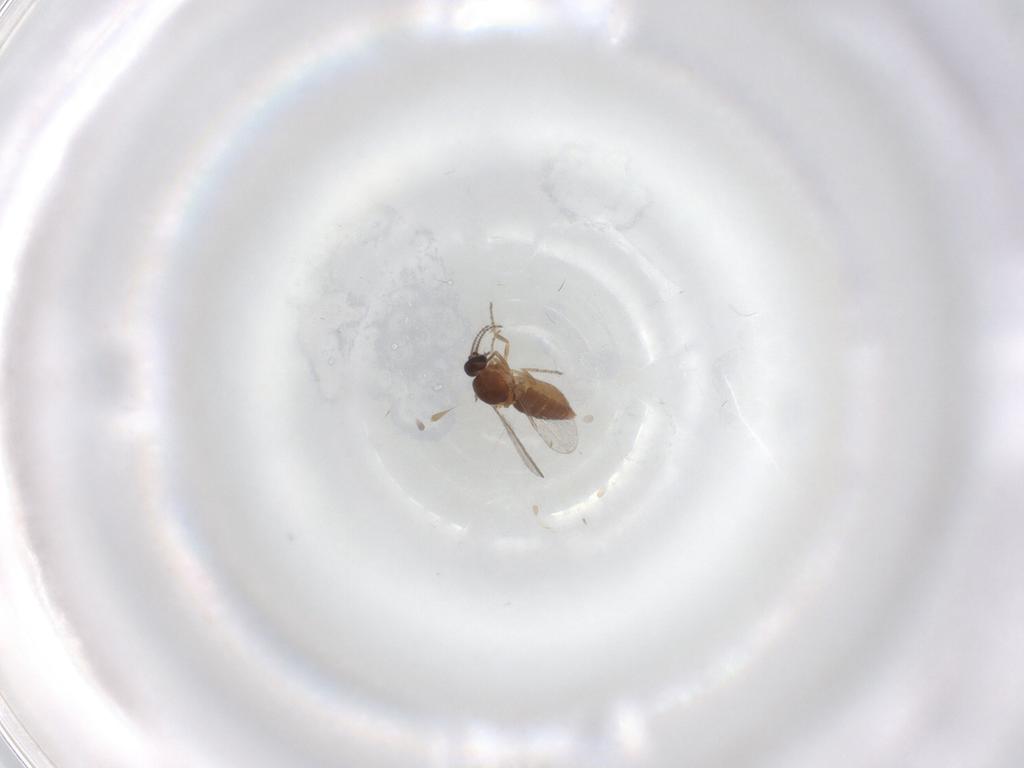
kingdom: Animalia
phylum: Arthropoda
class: Insecta
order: Diptera
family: Ceratopogonidae
